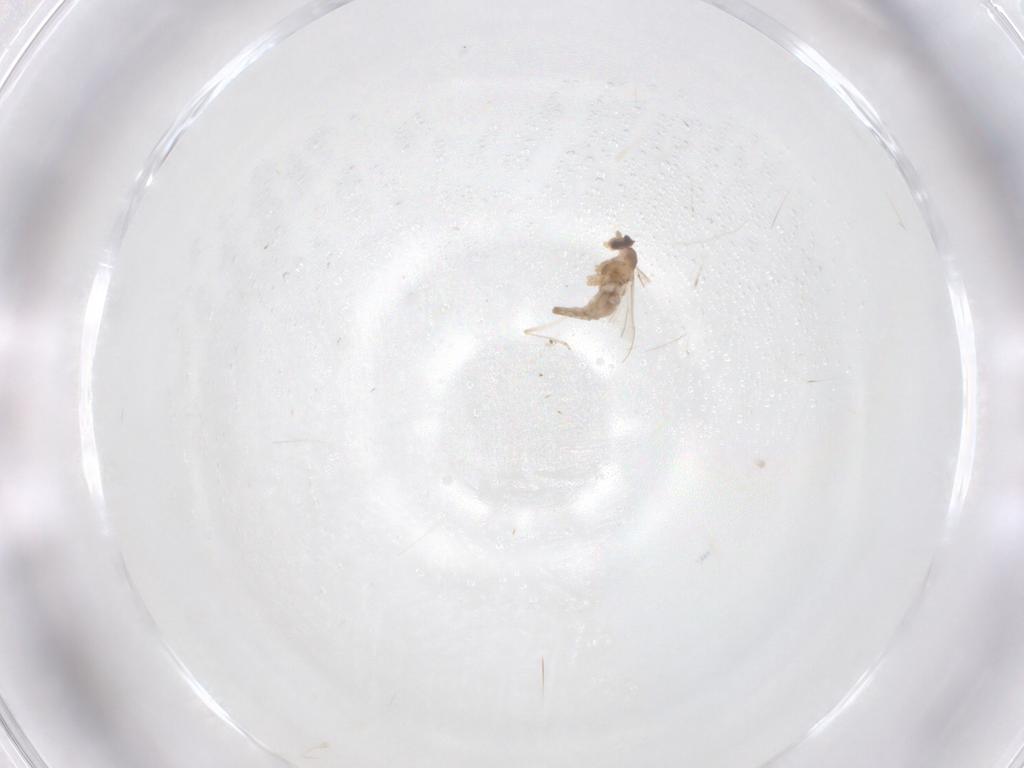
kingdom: Animalia
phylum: Arthropoda
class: Insecta
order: Diptera
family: Cecidomyiidae
